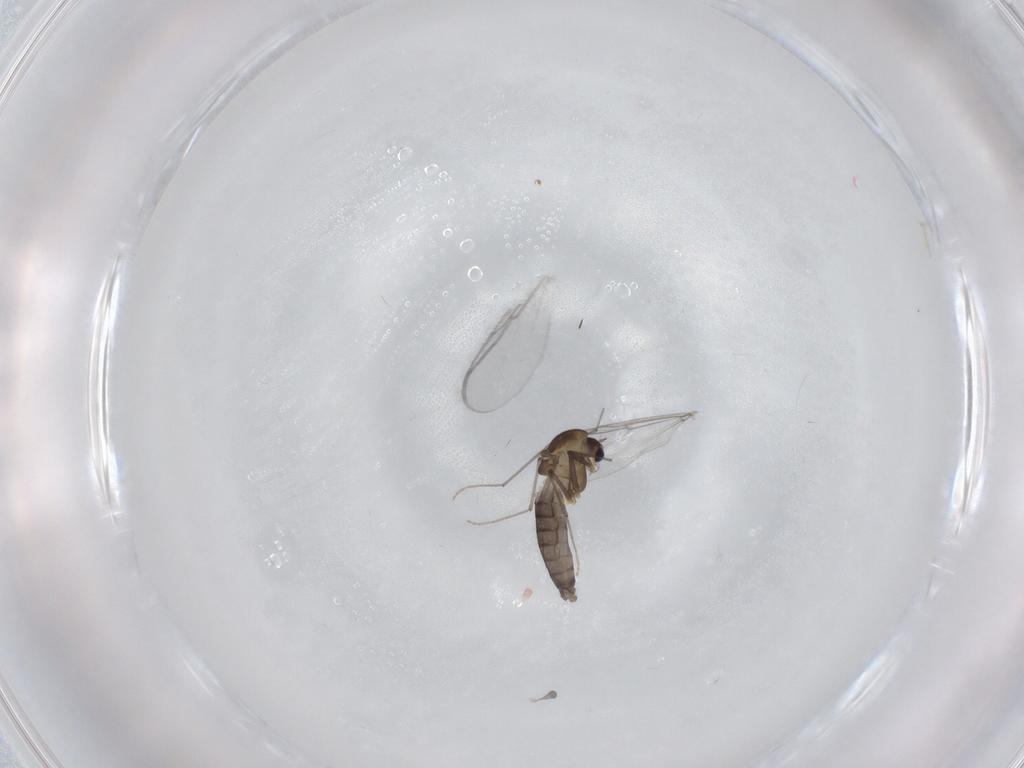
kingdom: Animalia
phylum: Arthropoda
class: Insecta
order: Diptera
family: Chironomidae
